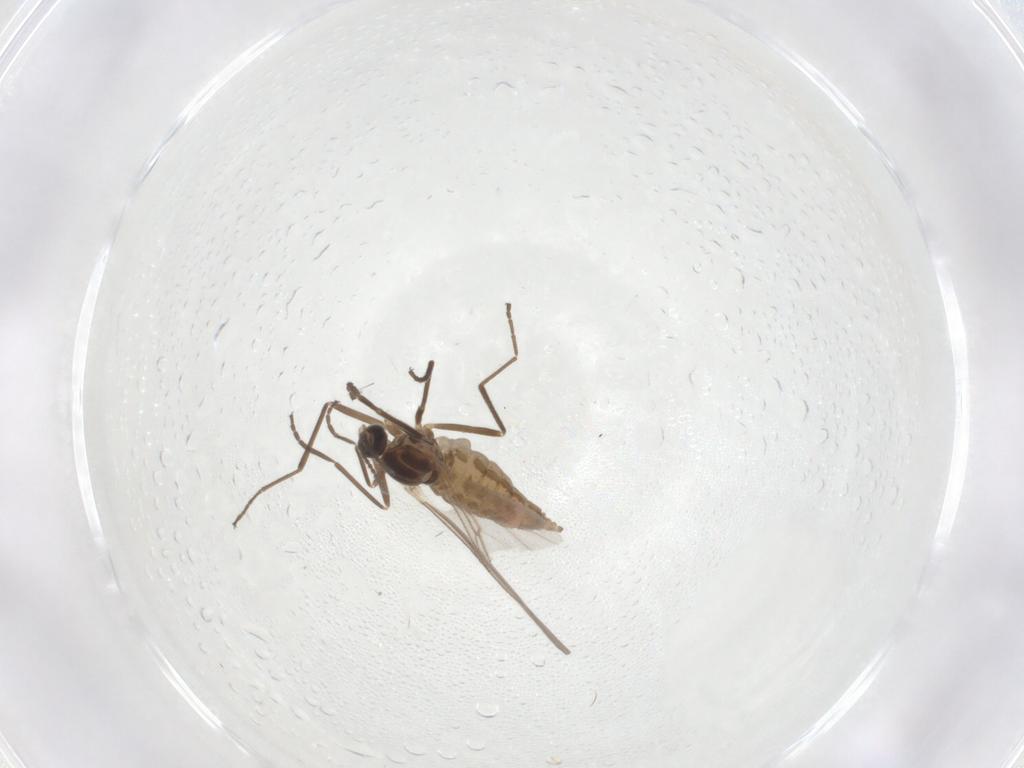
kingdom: Animalia
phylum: Arthropoda
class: Insecta
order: Diptera
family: Cecidomyiidae
